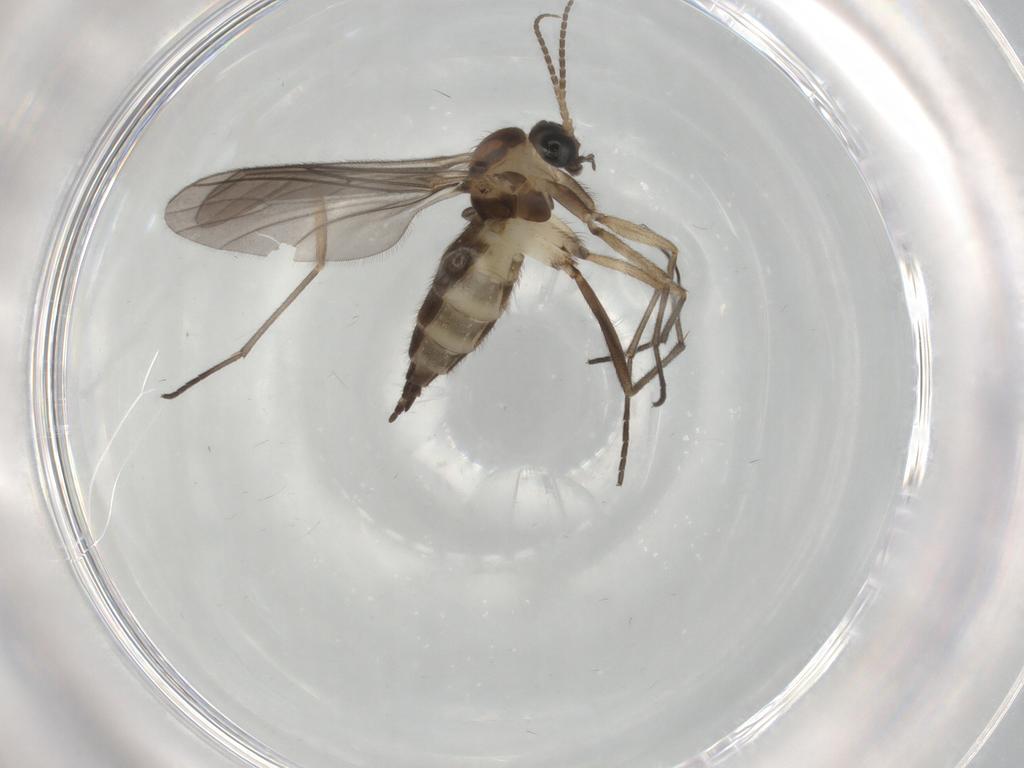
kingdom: Animalia
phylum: Arthropoda
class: Insecta
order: Diptera
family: Sciaridae
